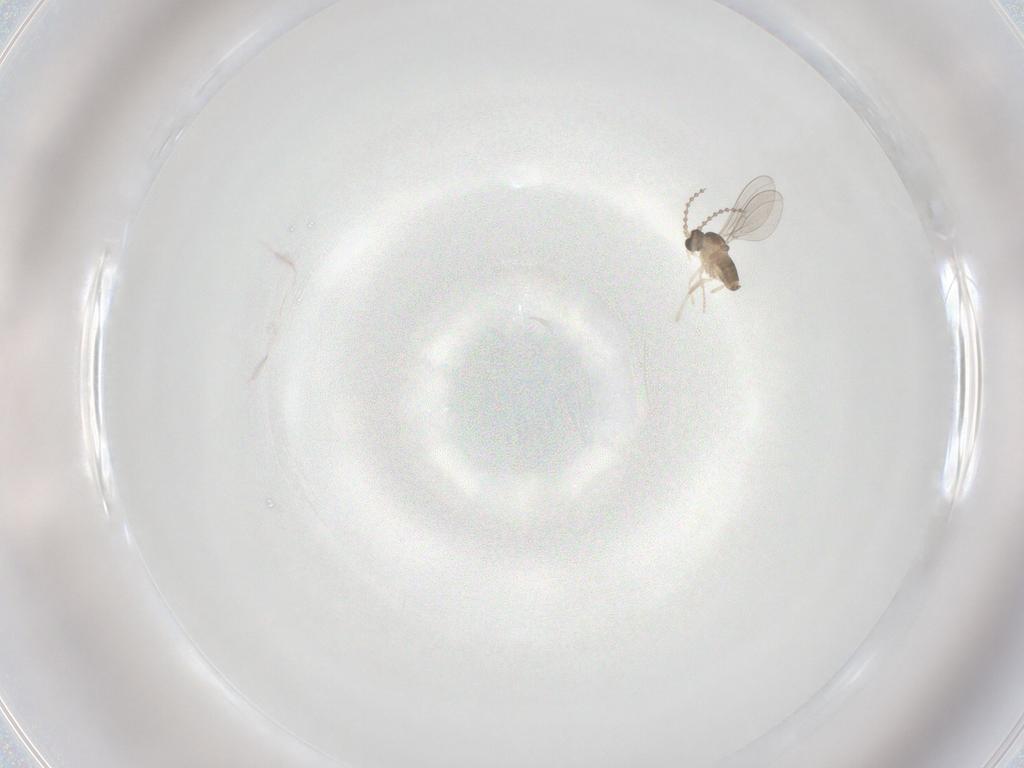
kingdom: Animalia
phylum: Arthropoda
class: Insecta
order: Diptera
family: Cecidomyiidae
